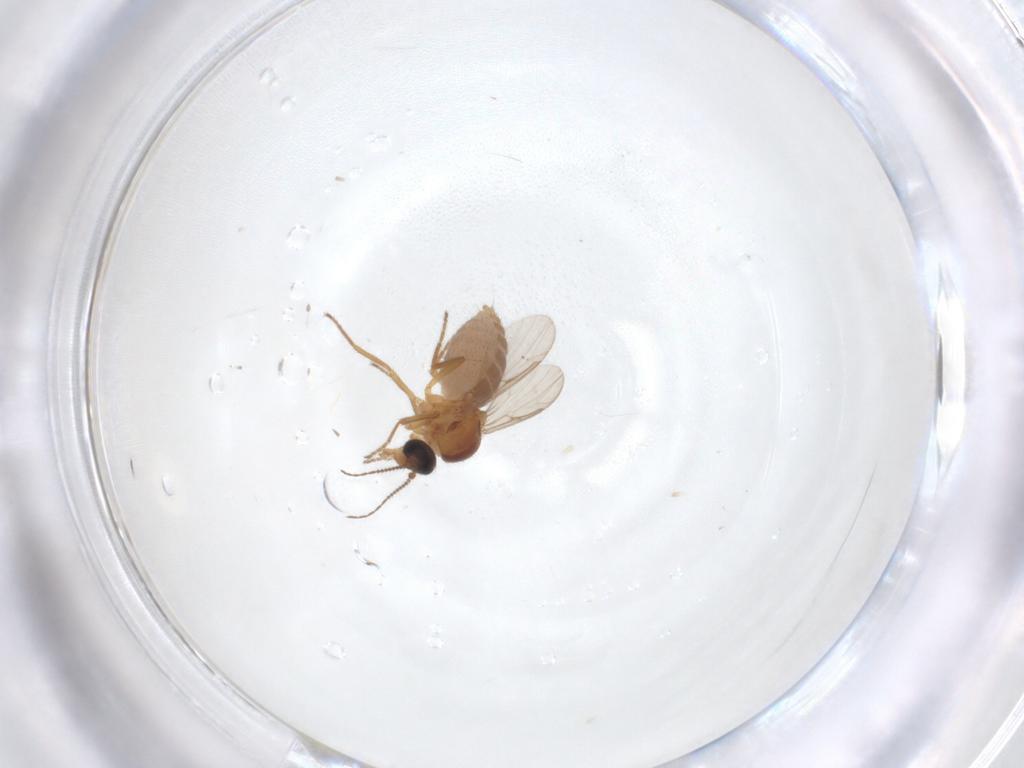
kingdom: Animalia
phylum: Arthropoda
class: Insecta
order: Diptera
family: Ceratopogonidae
